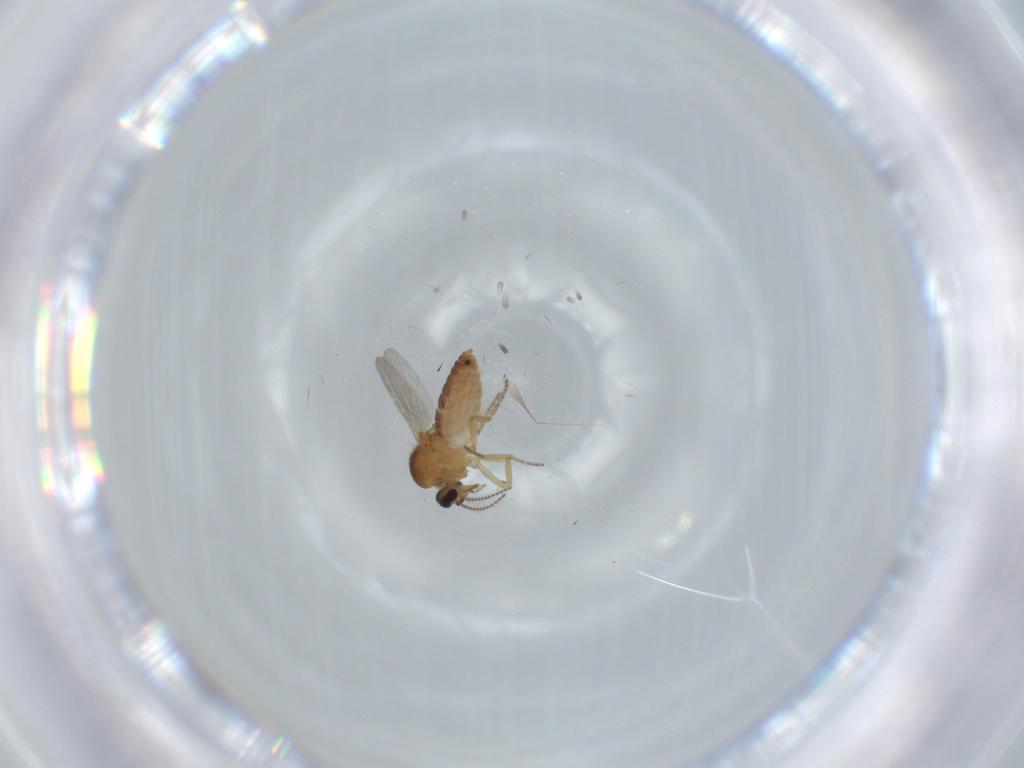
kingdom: Animalia
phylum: Arthropoda
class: Insecta
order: Diptera
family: Ceratopogonidae
